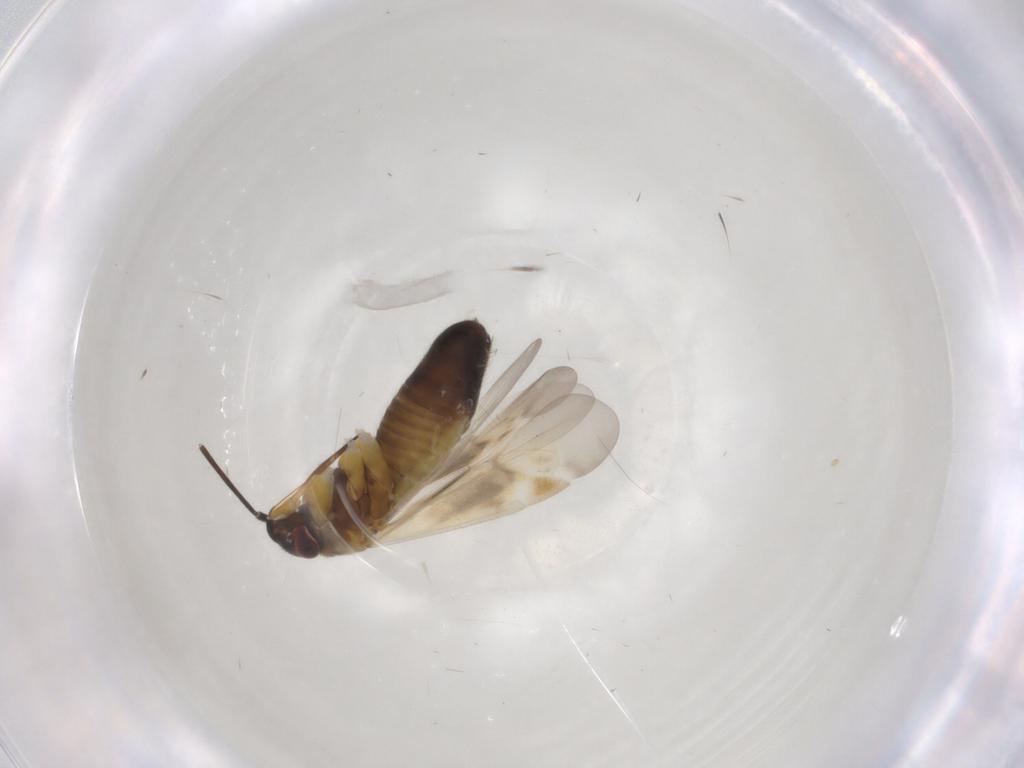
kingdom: Animalia
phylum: Arthropoda
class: Insecta
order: Hemiptera
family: Miridae
